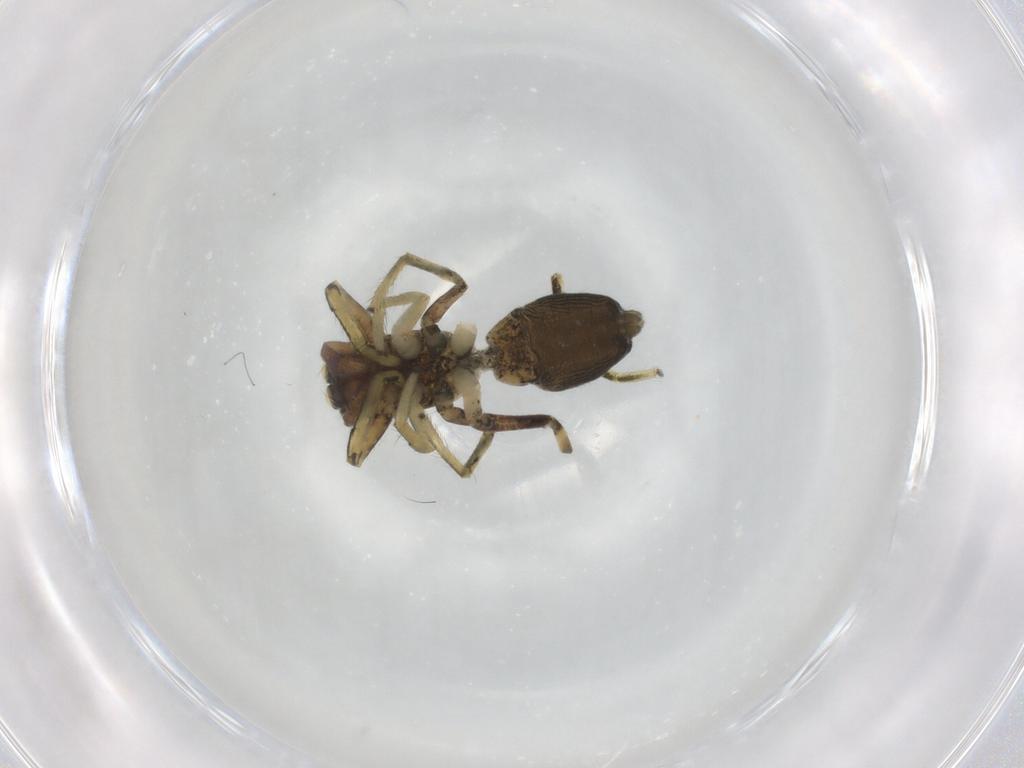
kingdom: Animalia
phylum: Arthropoda
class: Arachnida
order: Araneae
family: Salticidae
